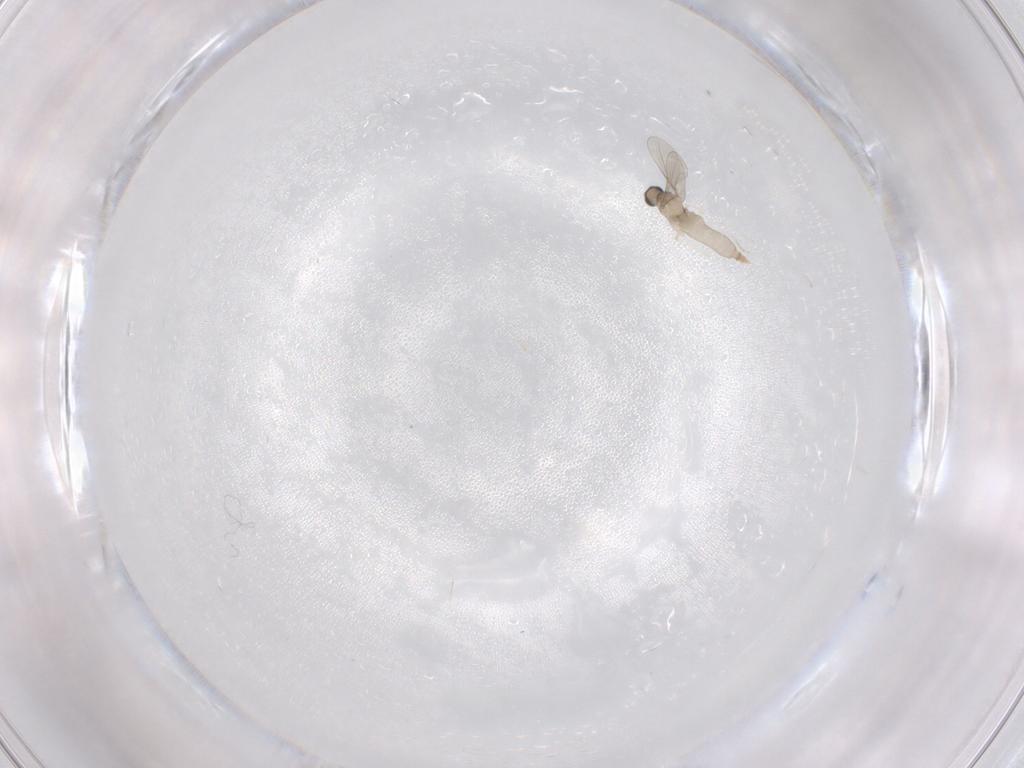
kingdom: Animalia
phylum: Arthropoda
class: Insecta
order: Diptera
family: Cecidomyiidae
